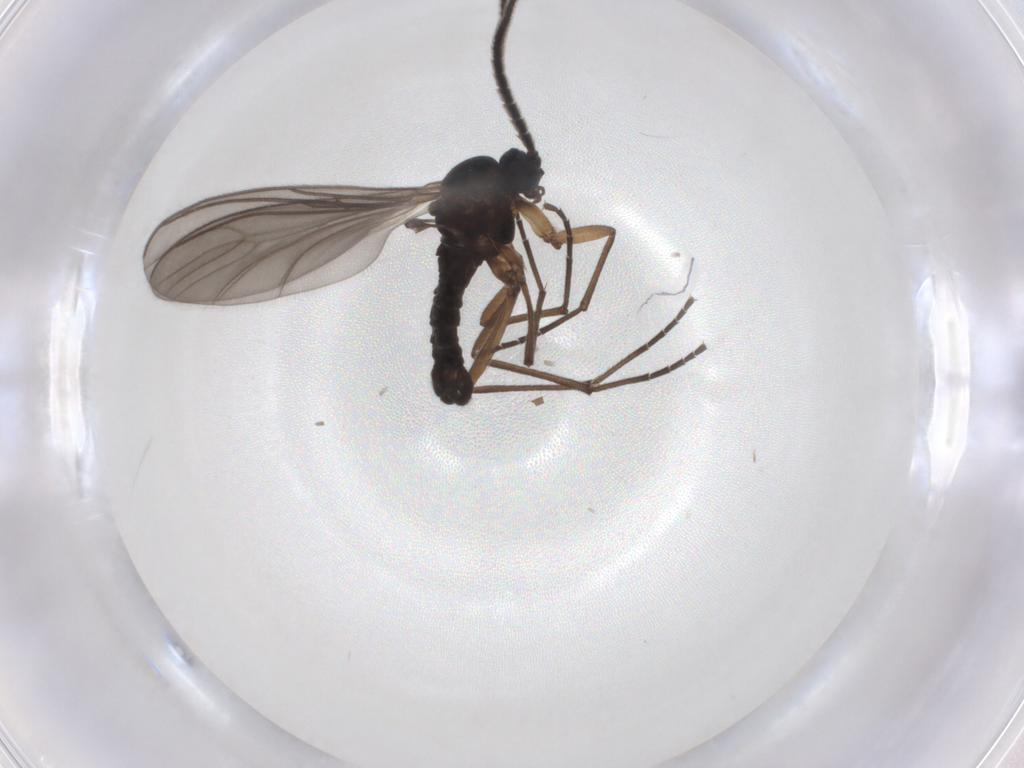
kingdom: Animalia
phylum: Arthropoda
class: Insecta
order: Diptera
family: Sciaridae
